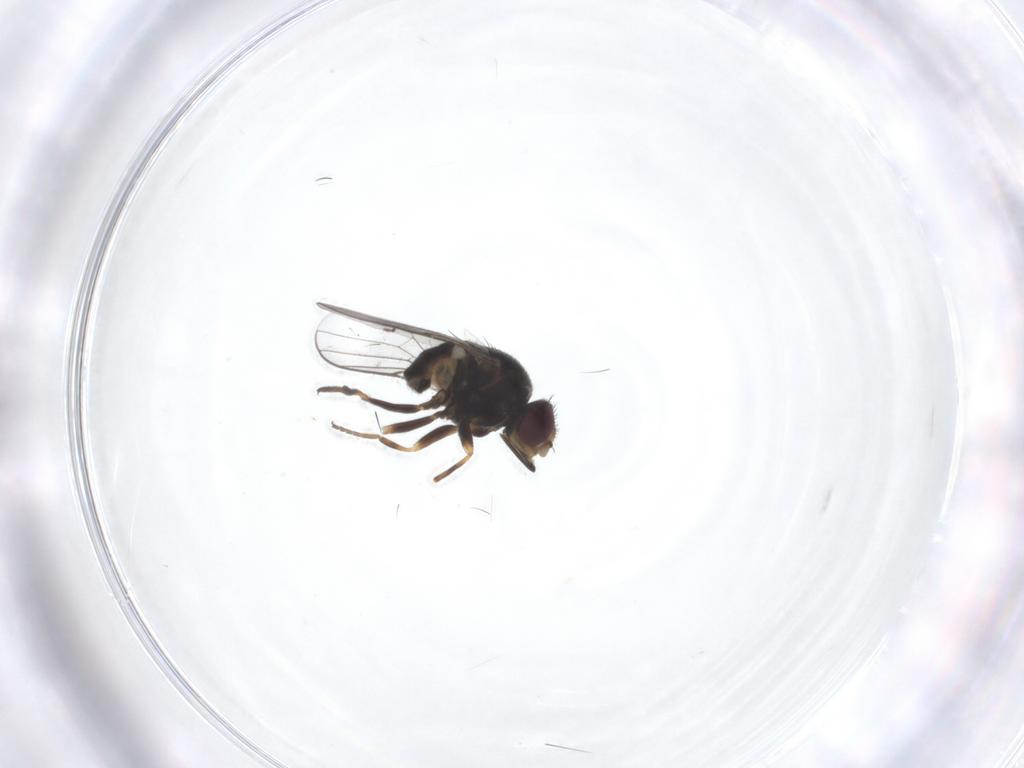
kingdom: Animalia
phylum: Arthropoda
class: Insecta
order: Diptera
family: Chloropidae
